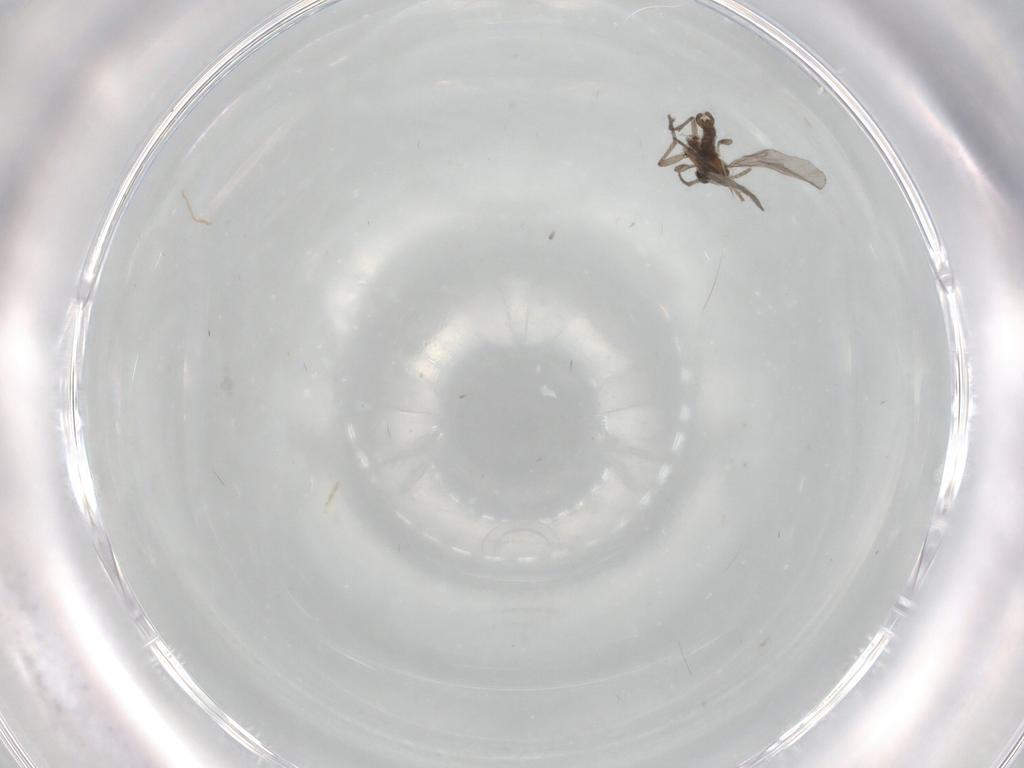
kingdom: Animalia
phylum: Arthropoda
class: Insecta
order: Diptera
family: Sciaridae
